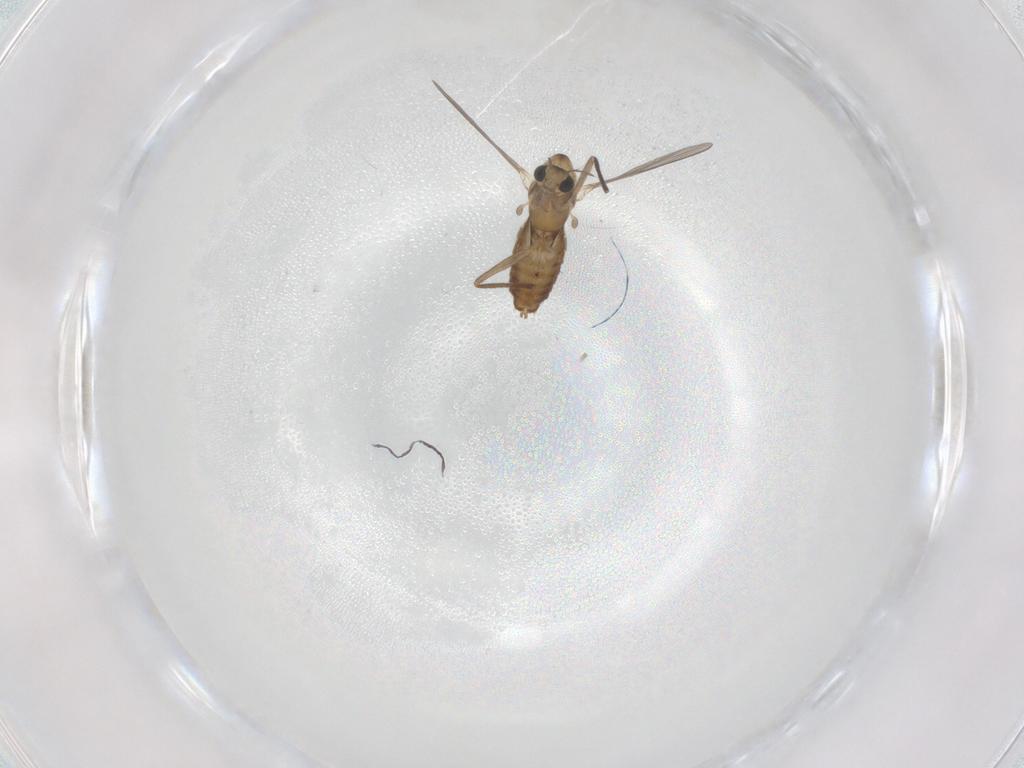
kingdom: Animalia
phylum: Arthropoda
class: Insecta
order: Diptera
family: Chironomidae
